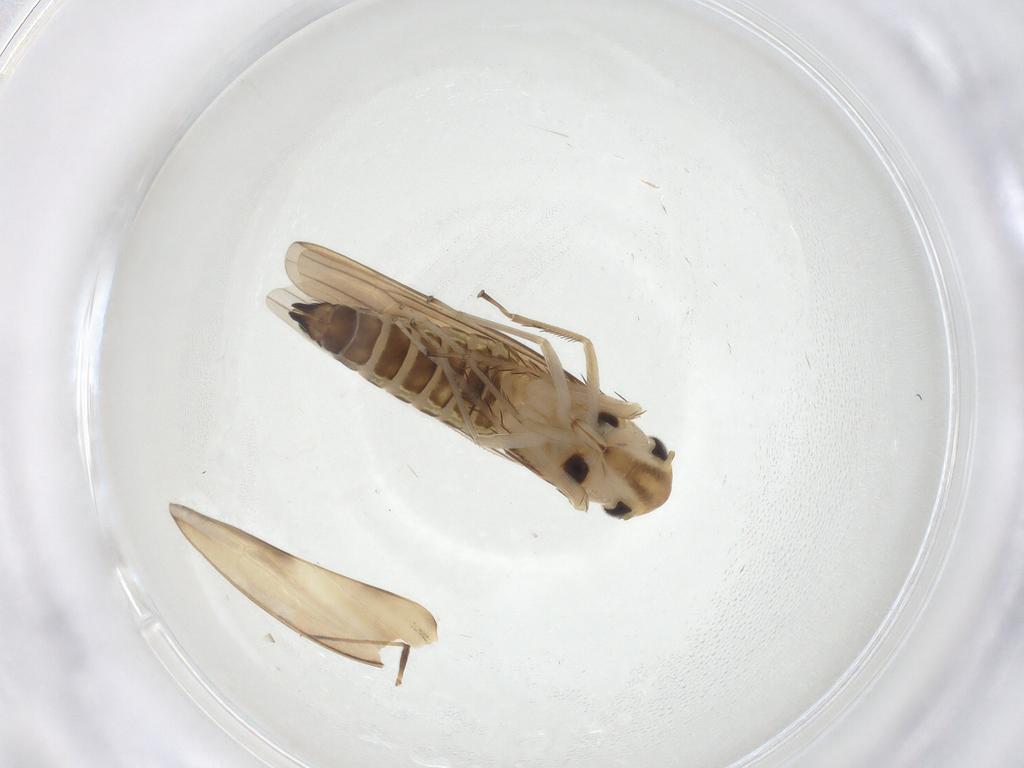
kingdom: Animalia
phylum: Arthropoda
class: Insecta
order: Hemiptera
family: Cicadellidae
